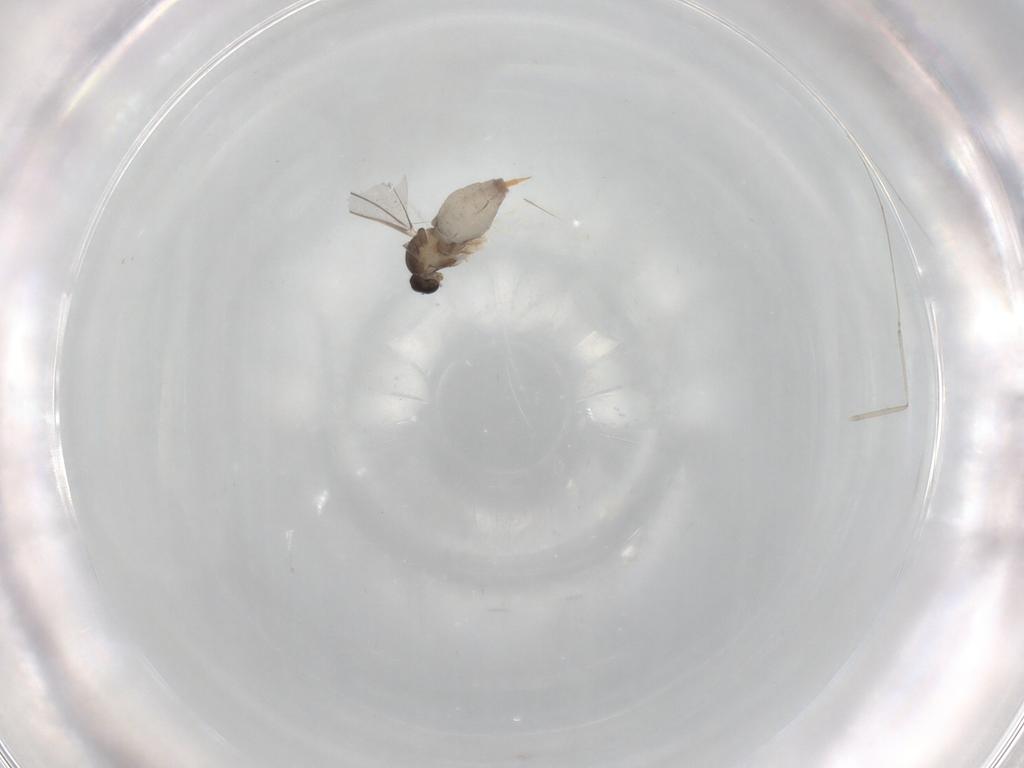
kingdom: Animalia
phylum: Arthropoda
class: Insecta
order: Diptera
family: Cecidomyiidae
